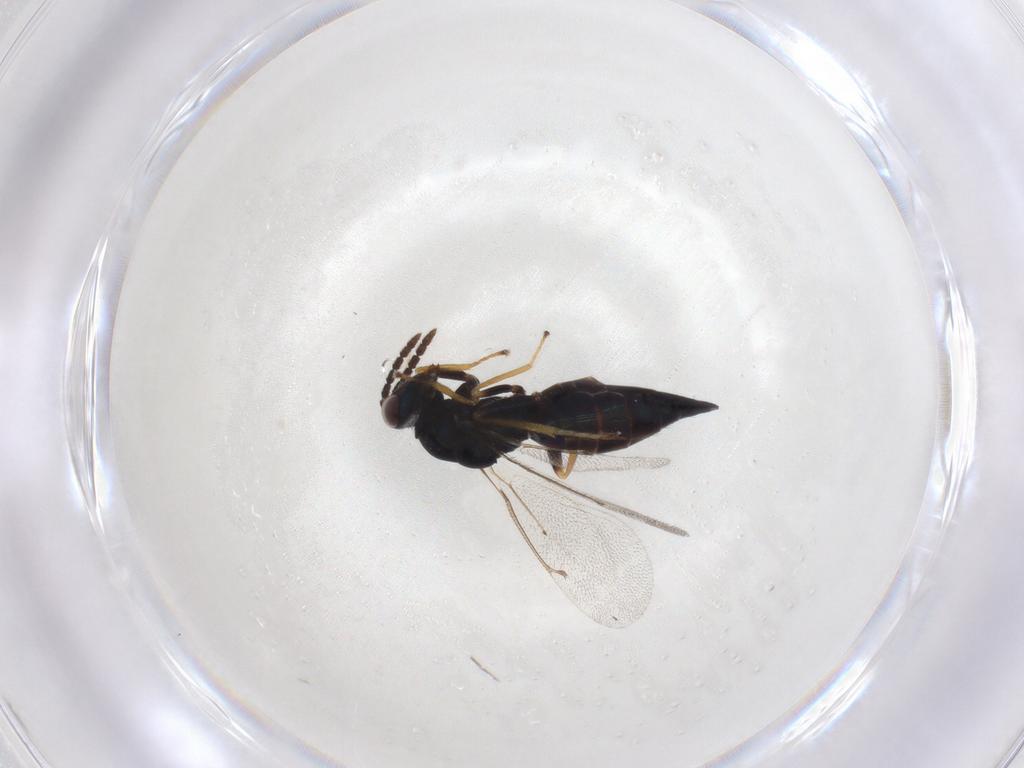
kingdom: Animalia
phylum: Arthropoda
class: Insecta
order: Hymenoptera
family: Eulophidae
